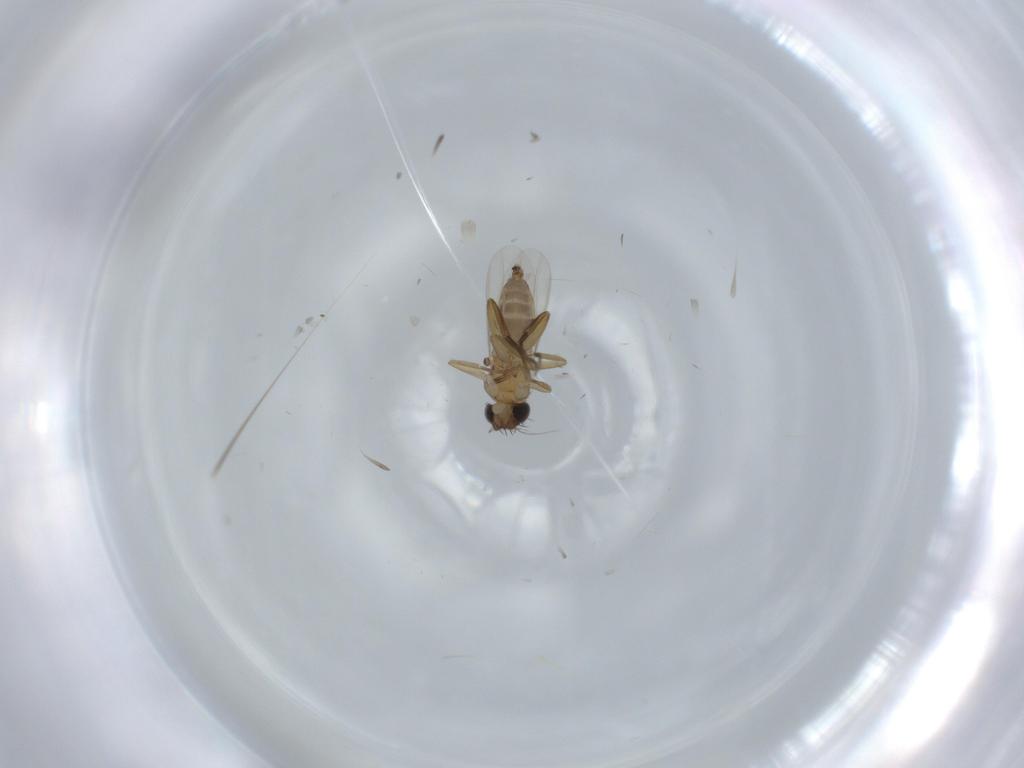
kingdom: Animalia
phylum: Arthropoda
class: Insecta
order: Diptera
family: Phoridae
